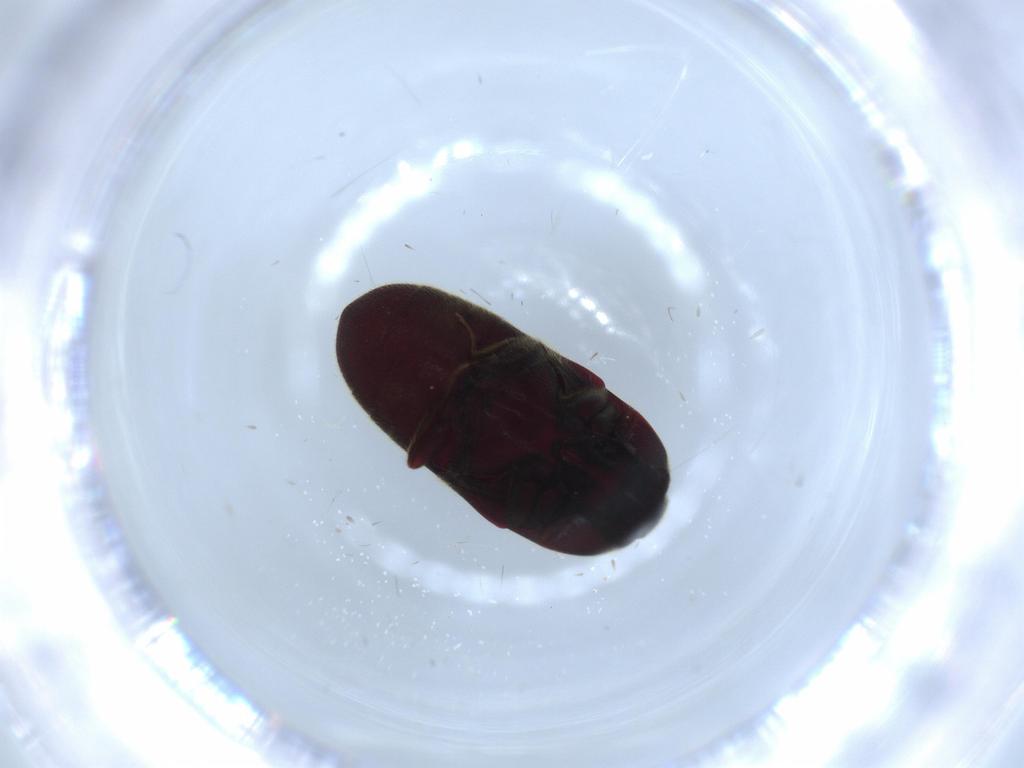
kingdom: Animalia
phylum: Arthropoda
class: Insecta
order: Coleoptera
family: Throscidae
